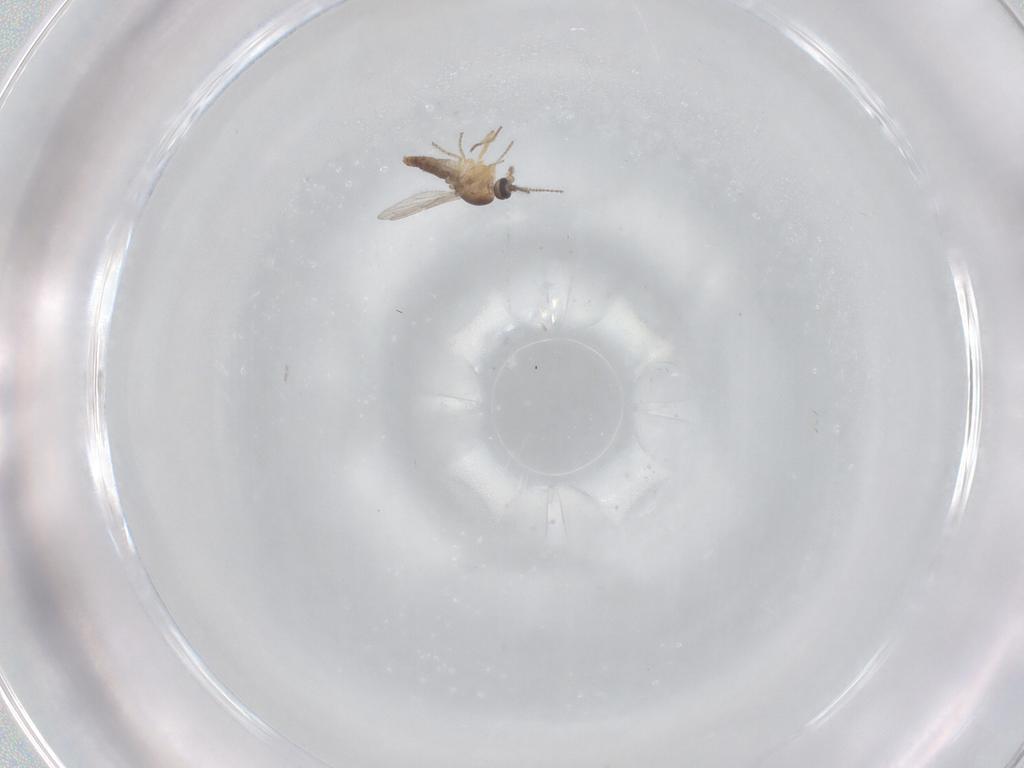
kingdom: Animalia
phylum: Arthropoda
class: Insecta
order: Diptera
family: Ceratopogonidae
